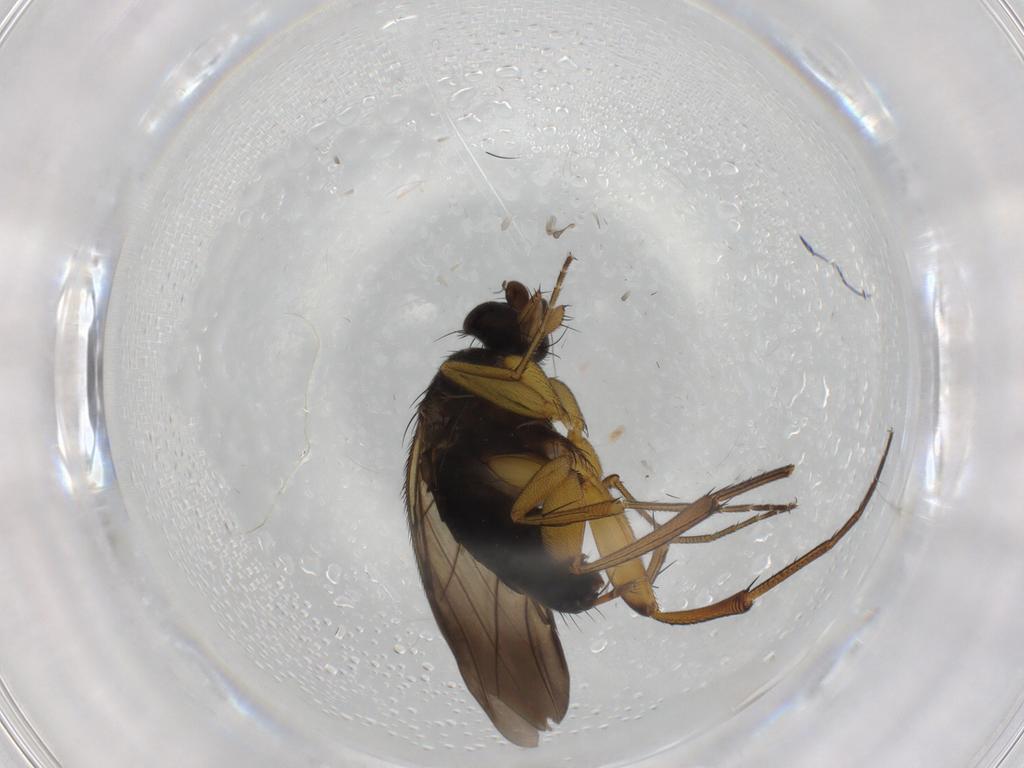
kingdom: Animalia
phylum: Arthropoda
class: Insecta
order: Diptera
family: Phoridae
